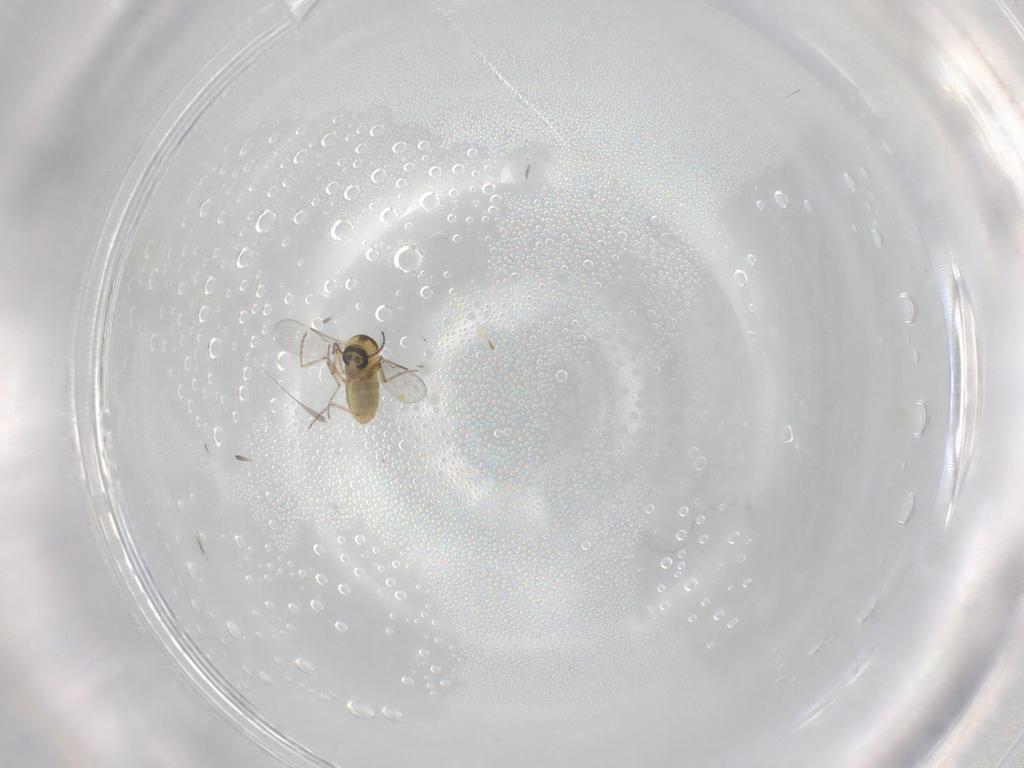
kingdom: Animalia
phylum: Arthropoda
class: Insecta
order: Diptera
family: Ceratopogonidae
